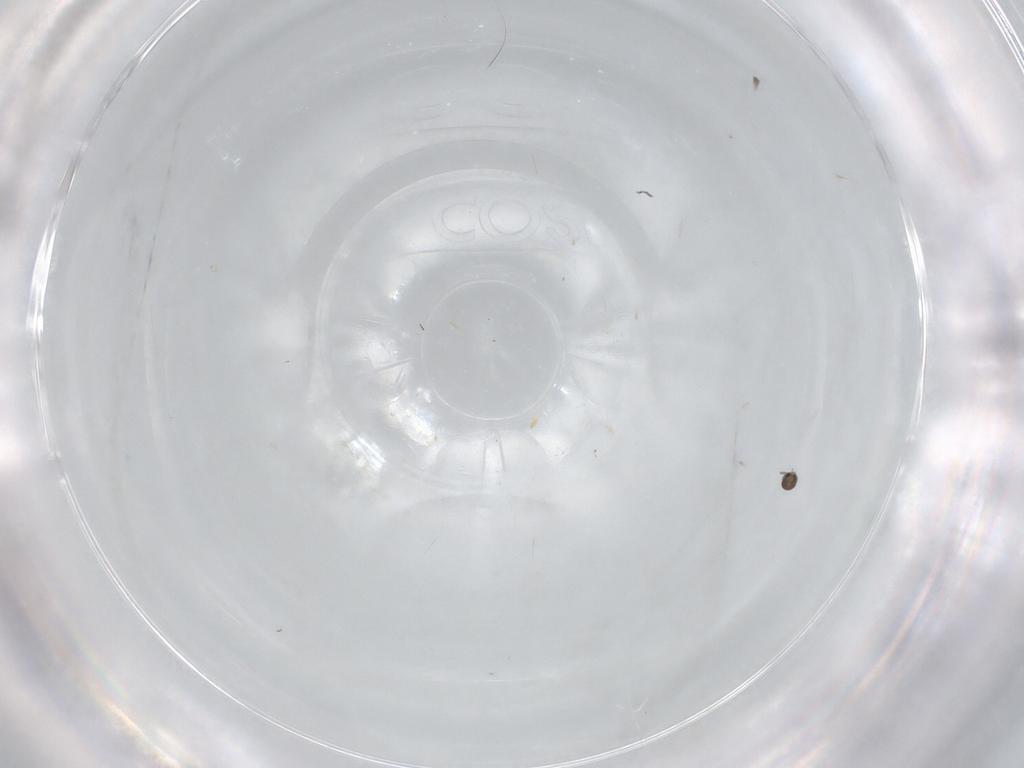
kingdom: Animalia
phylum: Arthropoda
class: Insecta
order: Diptera
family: Cecidomyiidae
